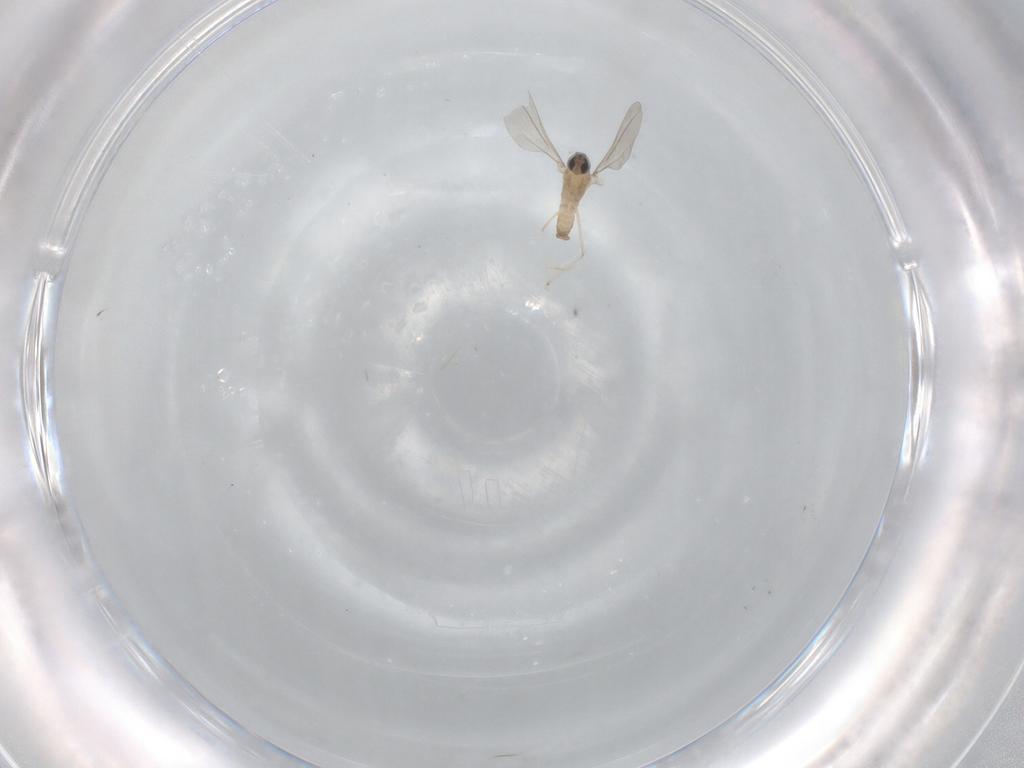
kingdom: Animalia
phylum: Arthropoda
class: Insecta
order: Diptera
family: Cecidomyiidae
